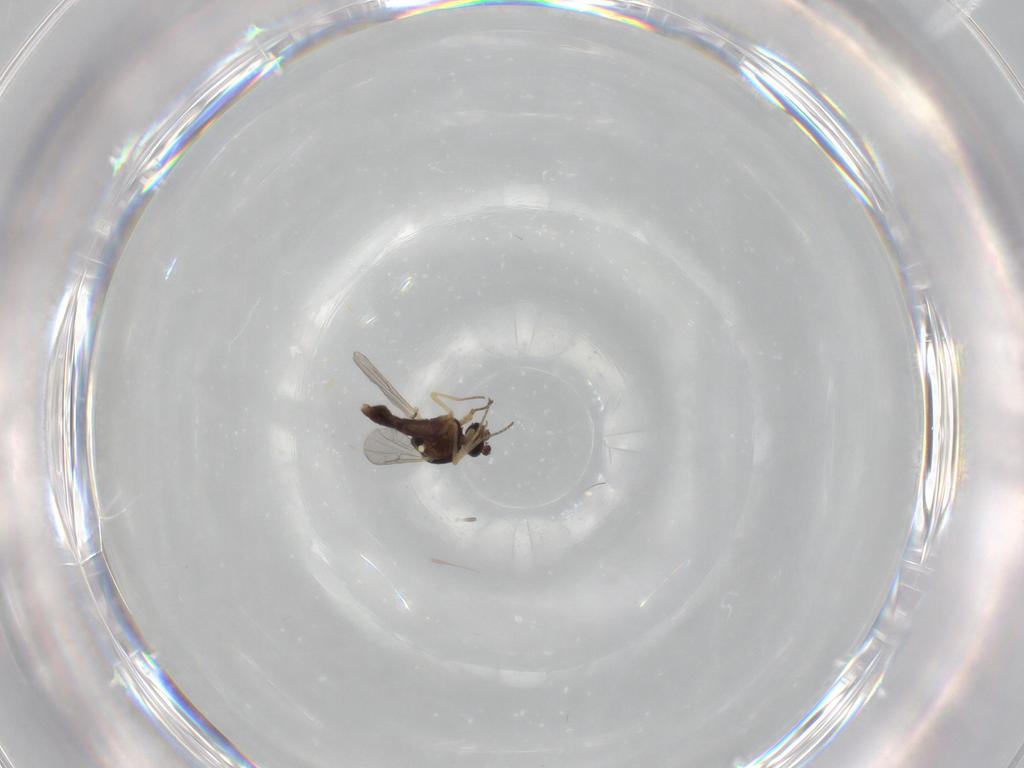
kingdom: Animalia
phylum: Arthropoda
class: Insecta
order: Diptera
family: Ceratopogonidae
